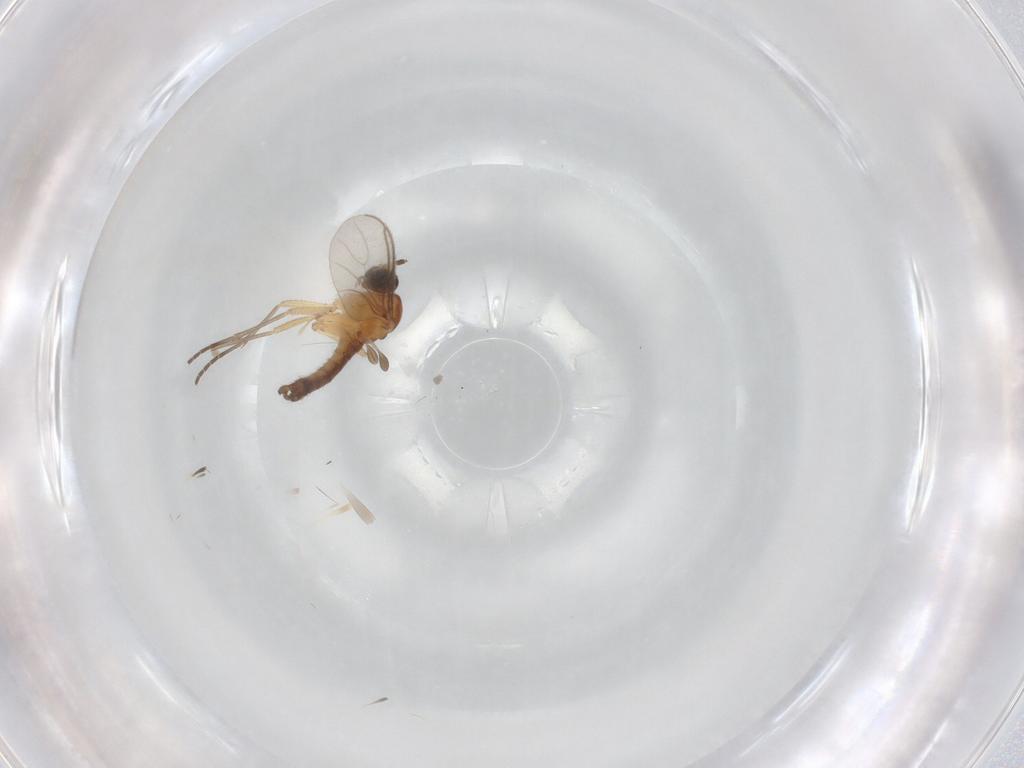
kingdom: Animalia
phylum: Arthropoda
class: Insecta
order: Diptera
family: Sciaridae
